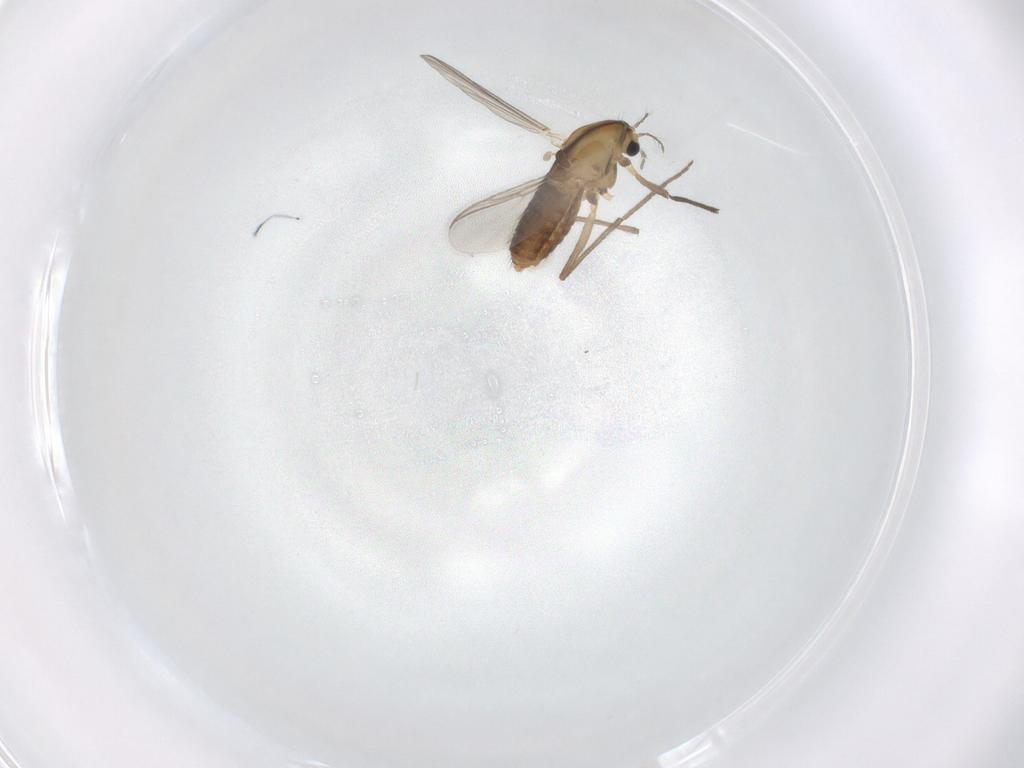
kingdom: Animalia
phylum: Arthropoda
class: Insecta
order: Diptera
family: Chironomidae
